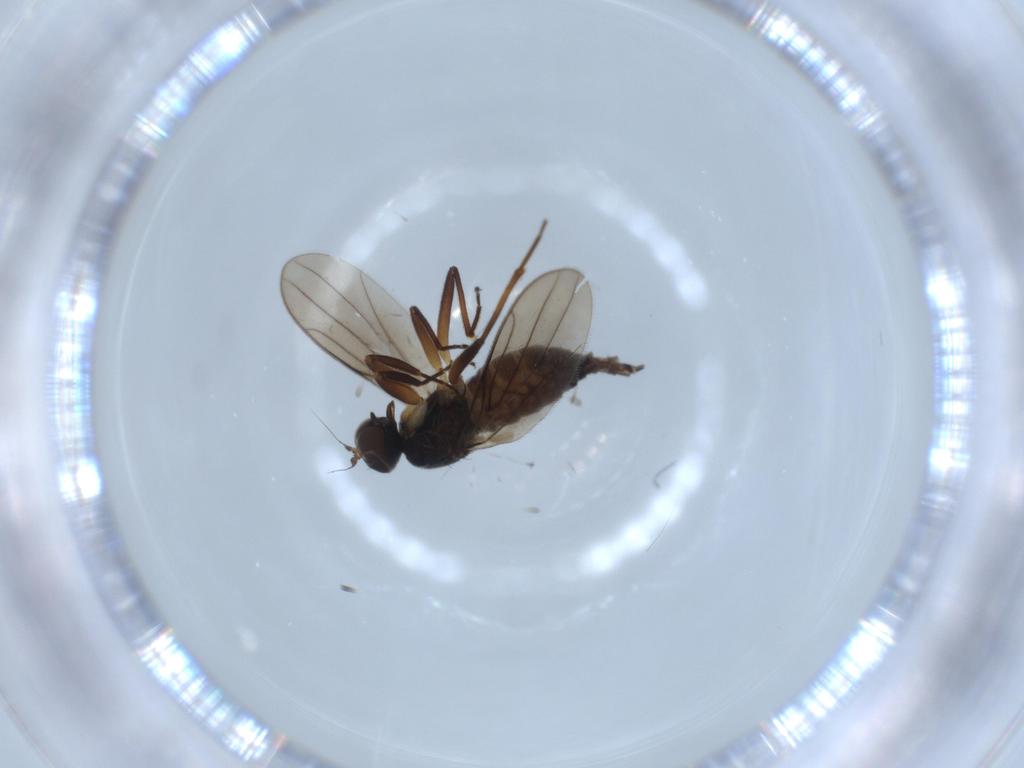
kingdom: Animalia
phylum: Arthropoda
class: Insecta
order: Diptera
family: Hybotidae
